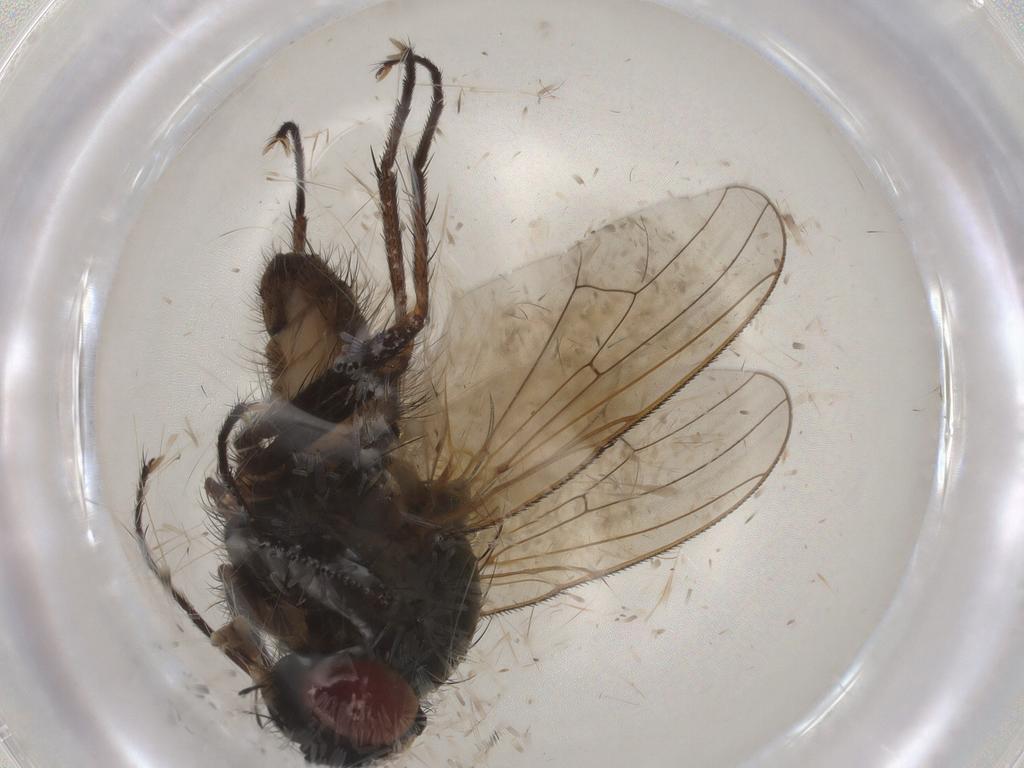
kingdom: Animalia
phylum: Arthropoda
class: Insecta
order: Diptera
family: Anthomyiidae
